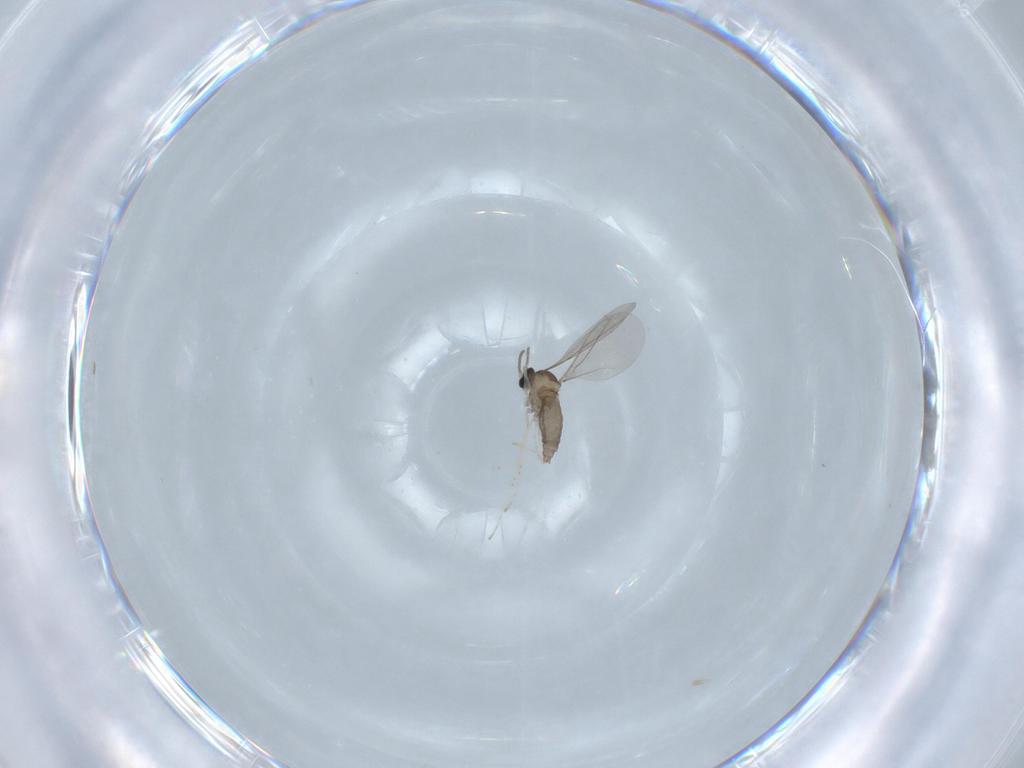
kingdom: Animalia
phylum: Arthropoda
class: Insecta
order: Diptera
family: Cecidomyiidae
